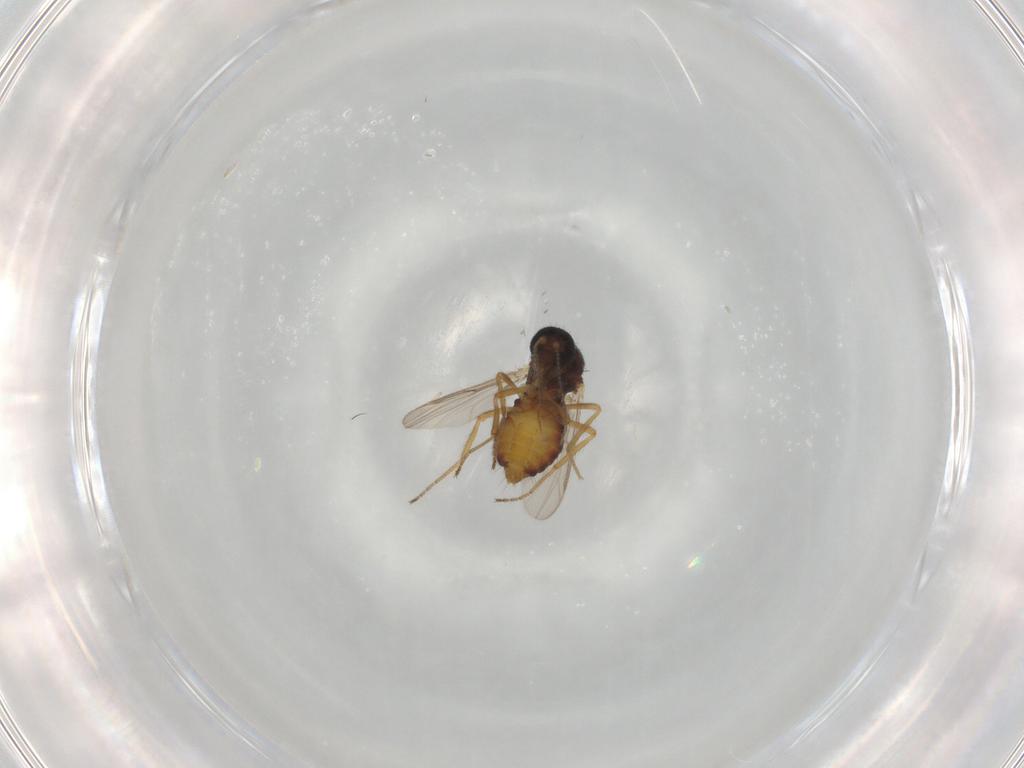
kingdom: Animalia
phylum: Arthropoda
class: Insecta
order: Diptera
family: Ceratopogonidae
